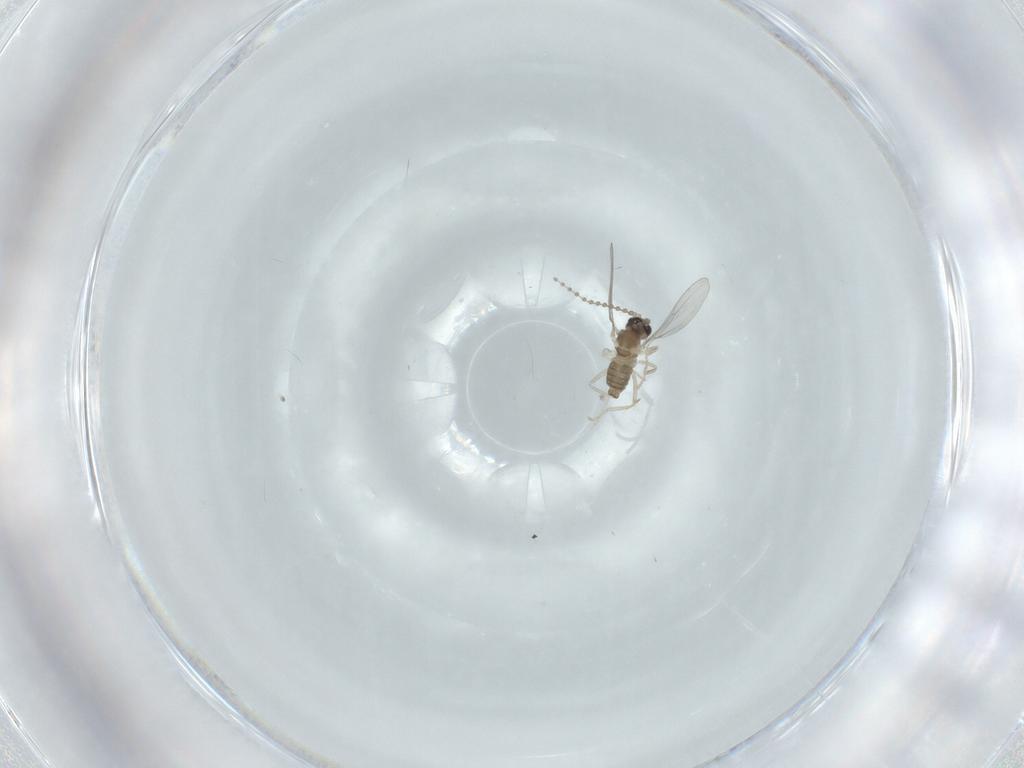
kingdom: Animalia
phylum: Arthropoda
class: Insecta
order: Diptera
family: Cecidomyiidae
